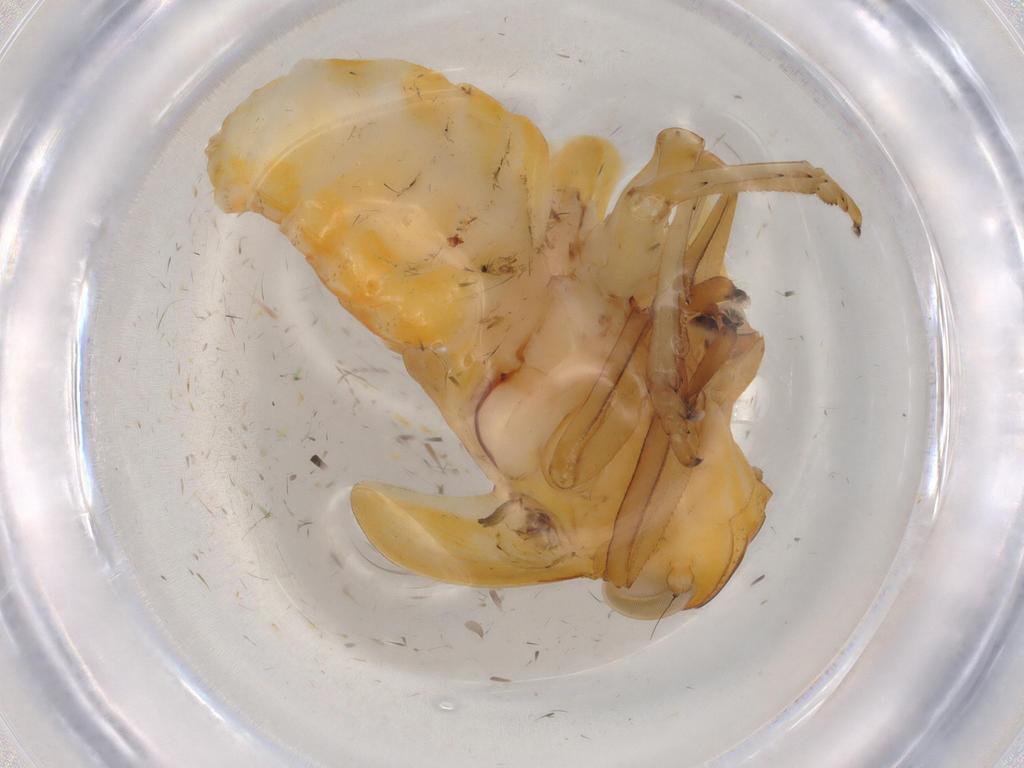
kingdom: Animalia
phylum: Arthropoda
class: Insecta
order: Hemiptera
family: Issidae
